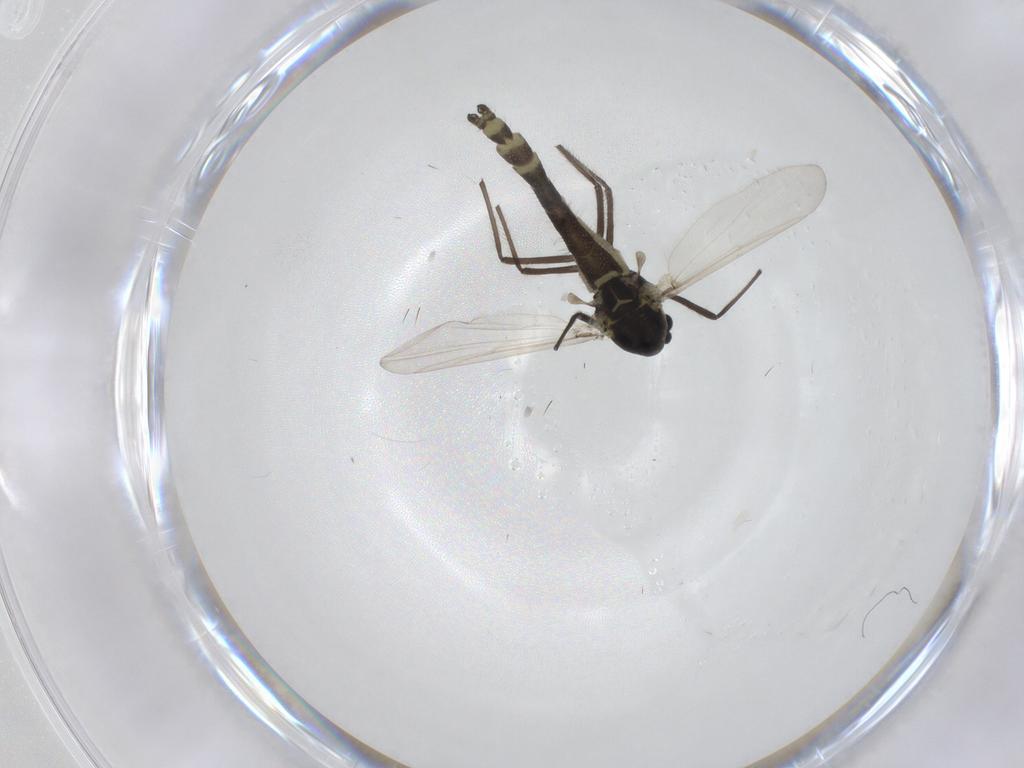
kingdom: Animalia
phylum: Arthropoda
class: Insecta
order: Diptera
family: Chironomidae
